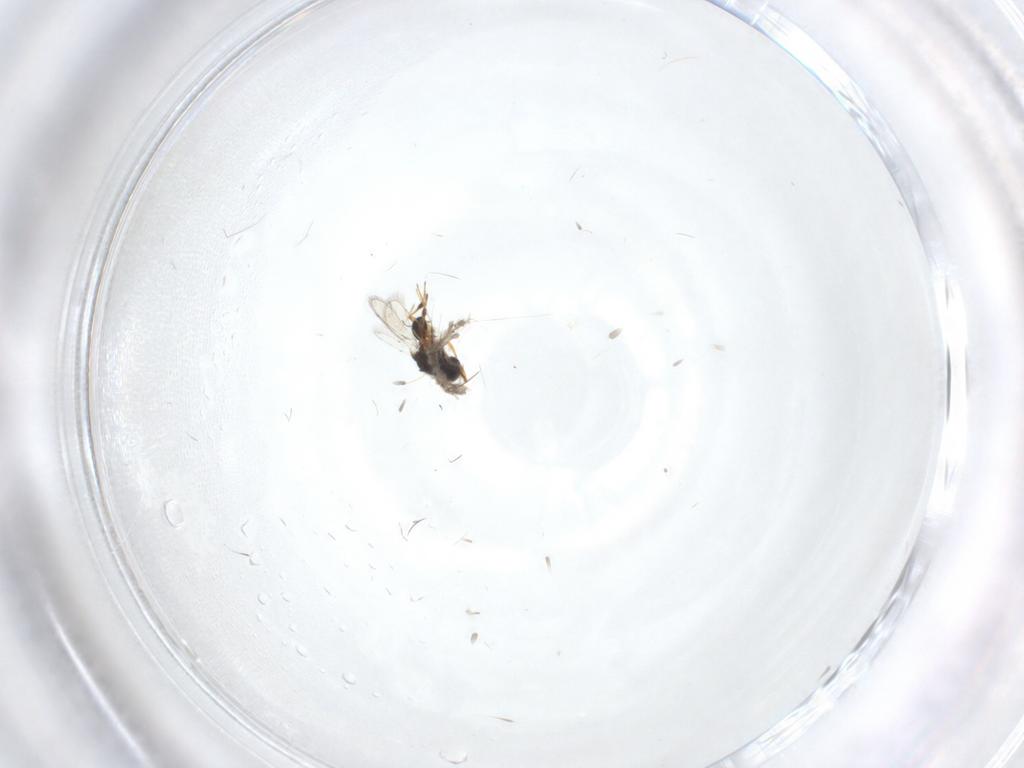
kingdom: Animalia
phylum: Arthropoda
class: Insecta
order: Hymenoptera
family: Platygastridae
